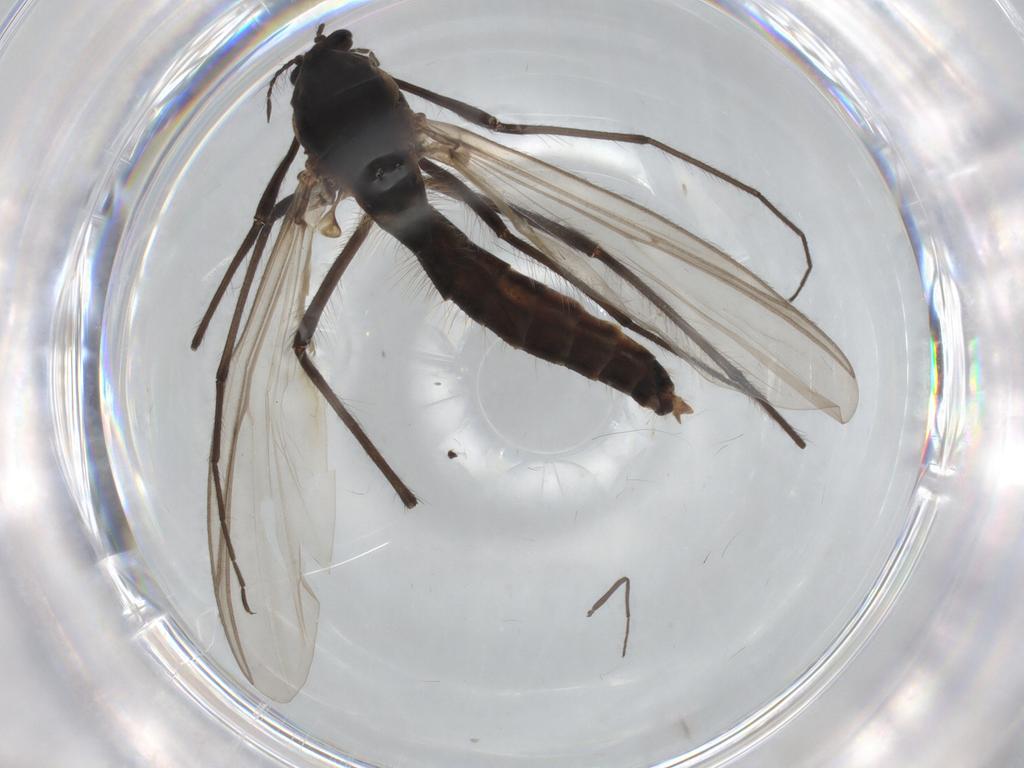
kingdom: Animalia
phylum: Arthropoda
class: Insecta
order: Diptera
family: Chironomidae
